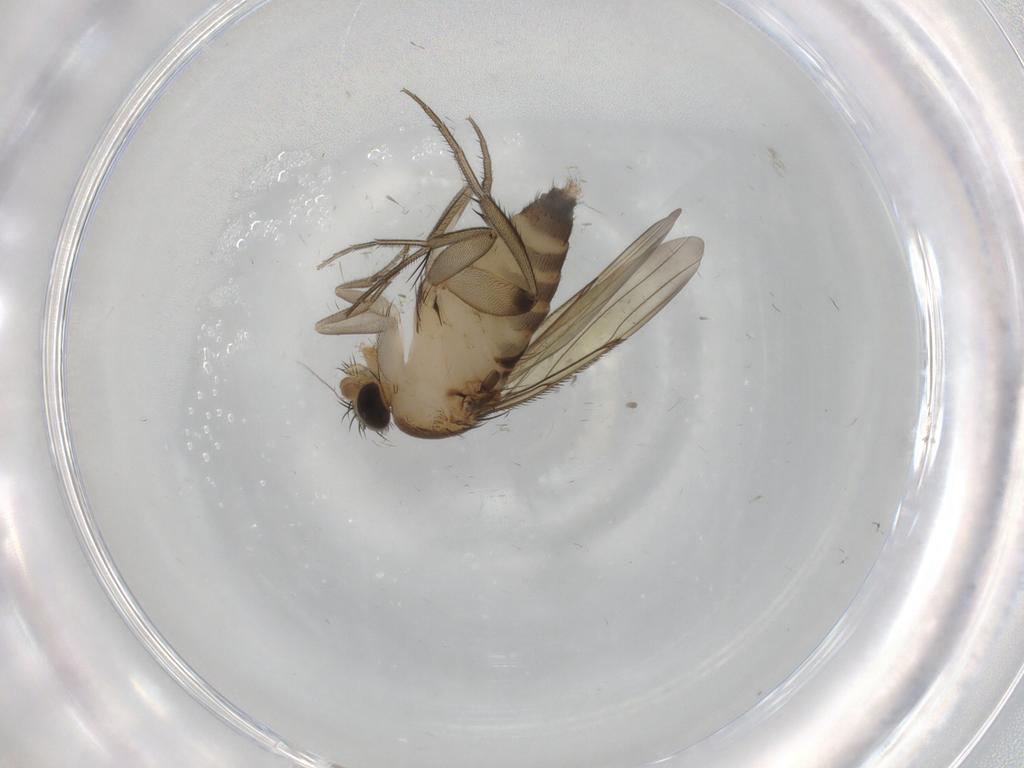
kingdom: Animalia
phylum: Arthropoda
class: Insecta
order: Diptera
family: Phoridae
